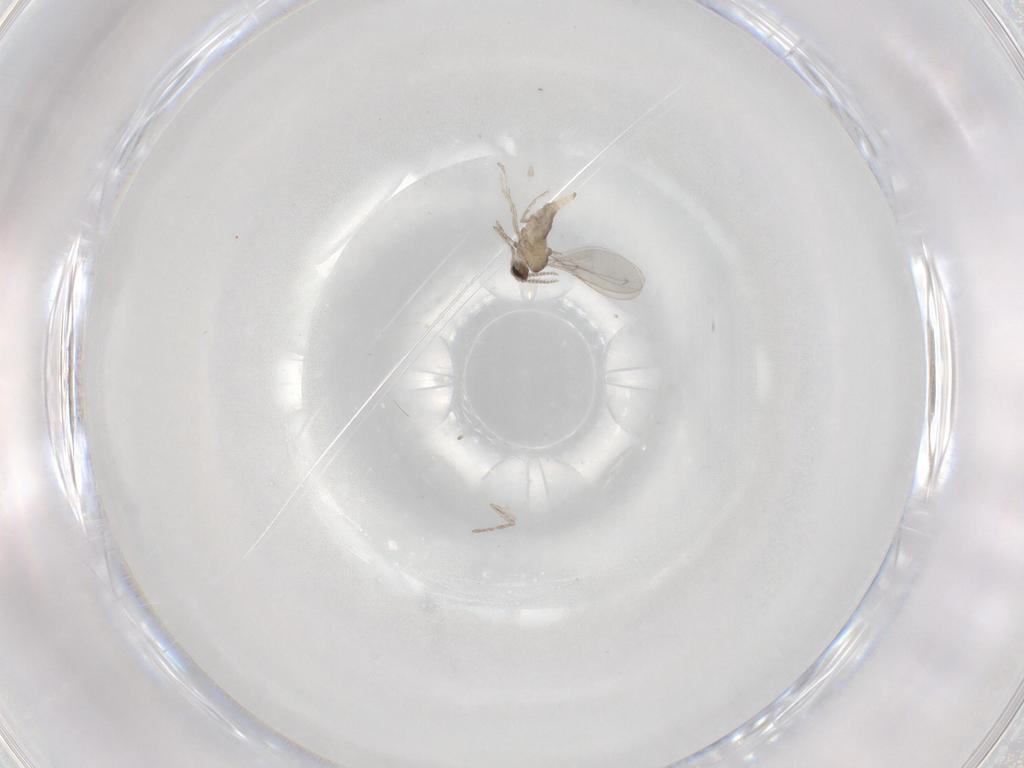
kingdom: Animalia
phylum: Arthropoda
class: Insecta
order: Diptera
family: Cecidomyiidae
